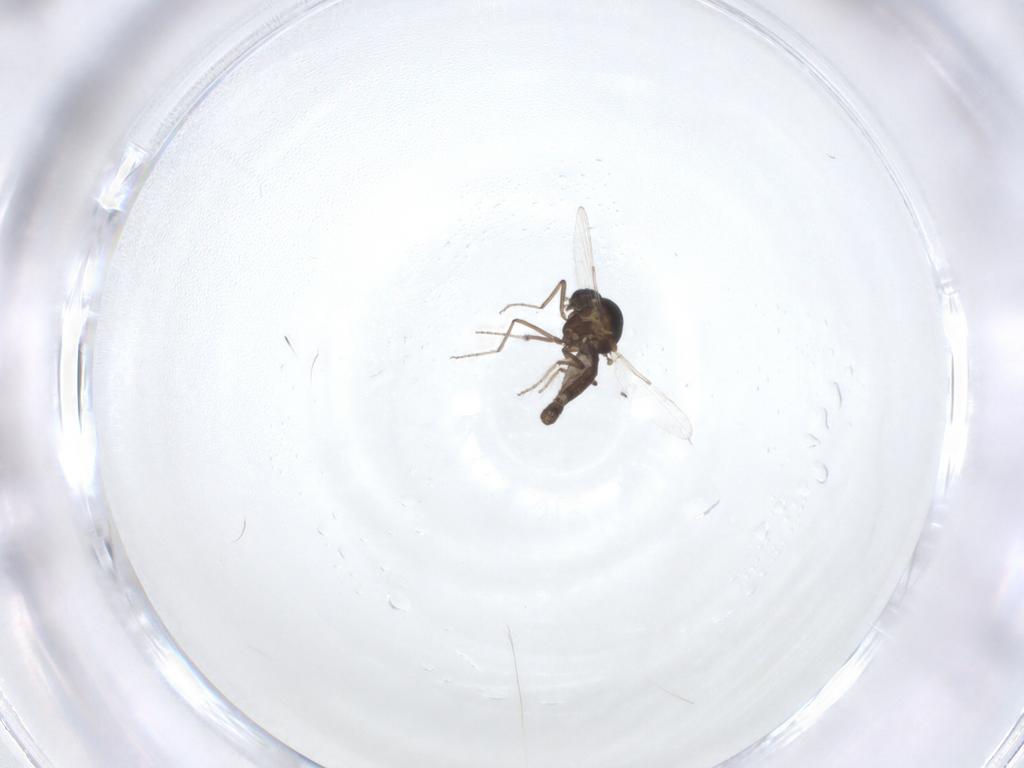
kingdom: Animalia
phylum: Arthropoda
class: Insecta
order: Diptera
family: Ceratopogonidae
